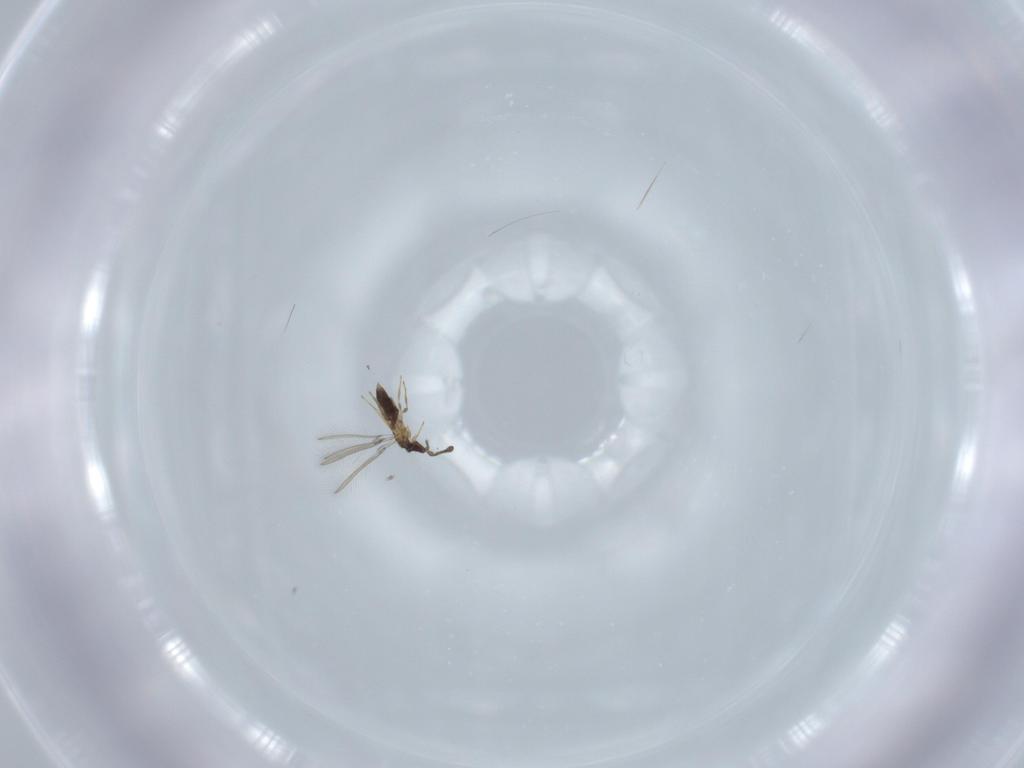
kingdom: Animalia
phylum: Arthropoda
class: Insecta
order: Hymenoptera
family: Mymaridae
